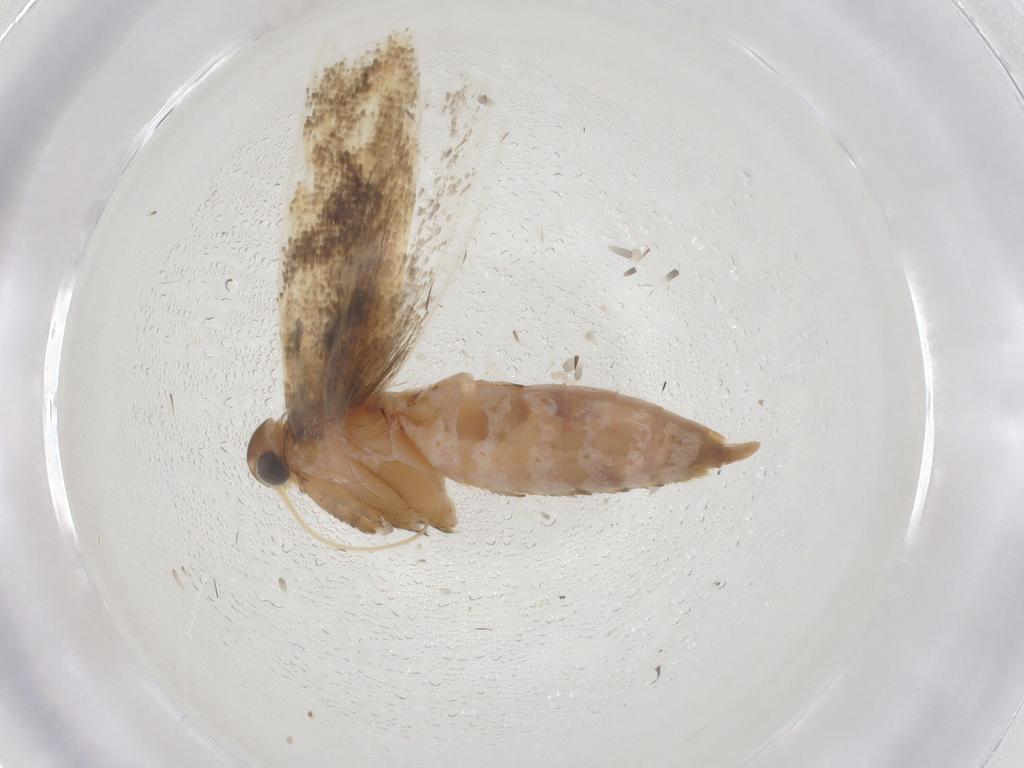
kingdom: Animalia
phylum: Arthropoda
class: Insecta
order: Lepidoptera
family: Gelechiidae
